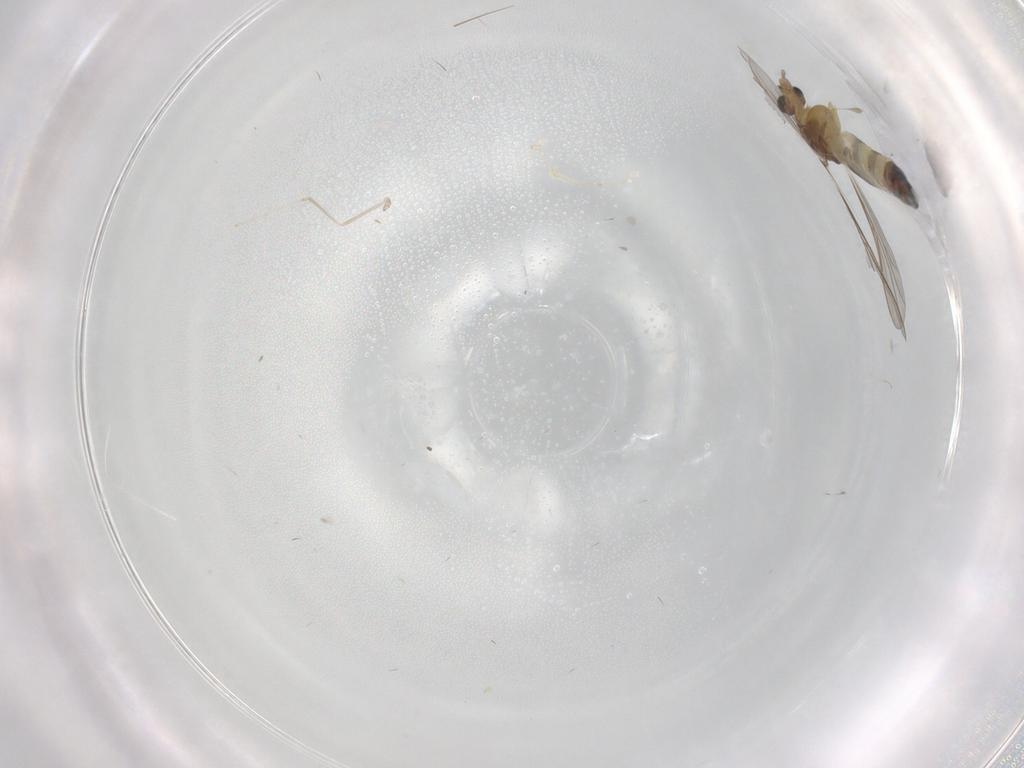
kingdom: Animalia
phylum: Arthropoda
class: Insecta
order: Diptera
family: Chironomidae
